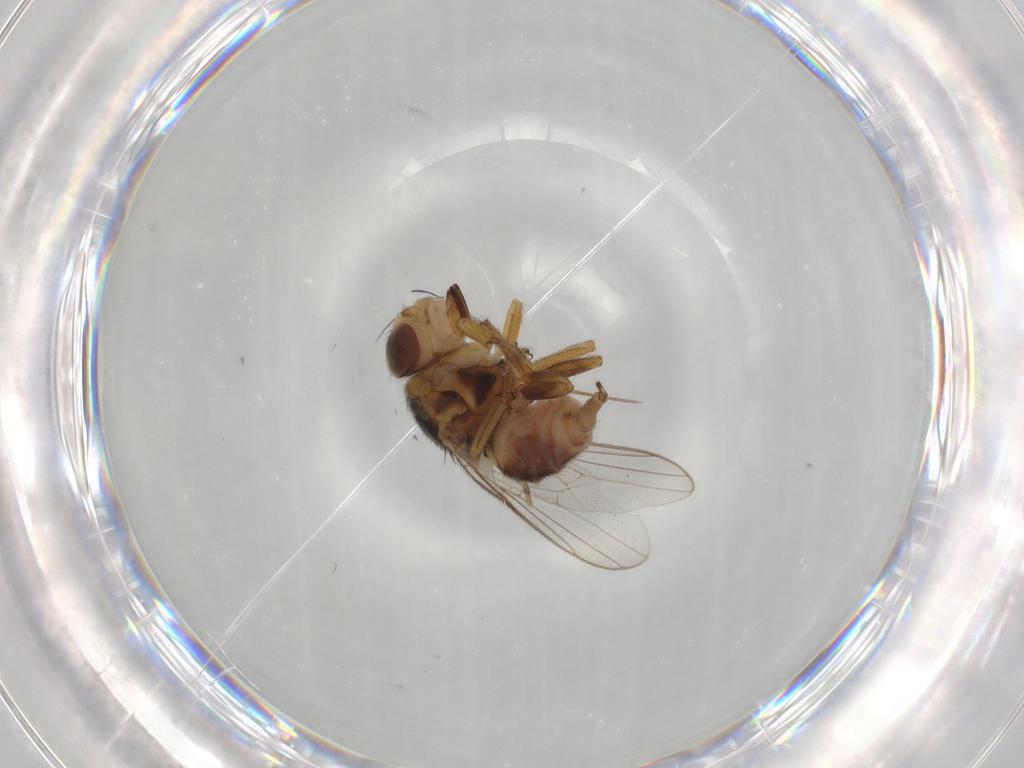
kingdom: Animalia
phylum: Arthropoda
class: Insecta
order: Diptera
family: Chloropidae
